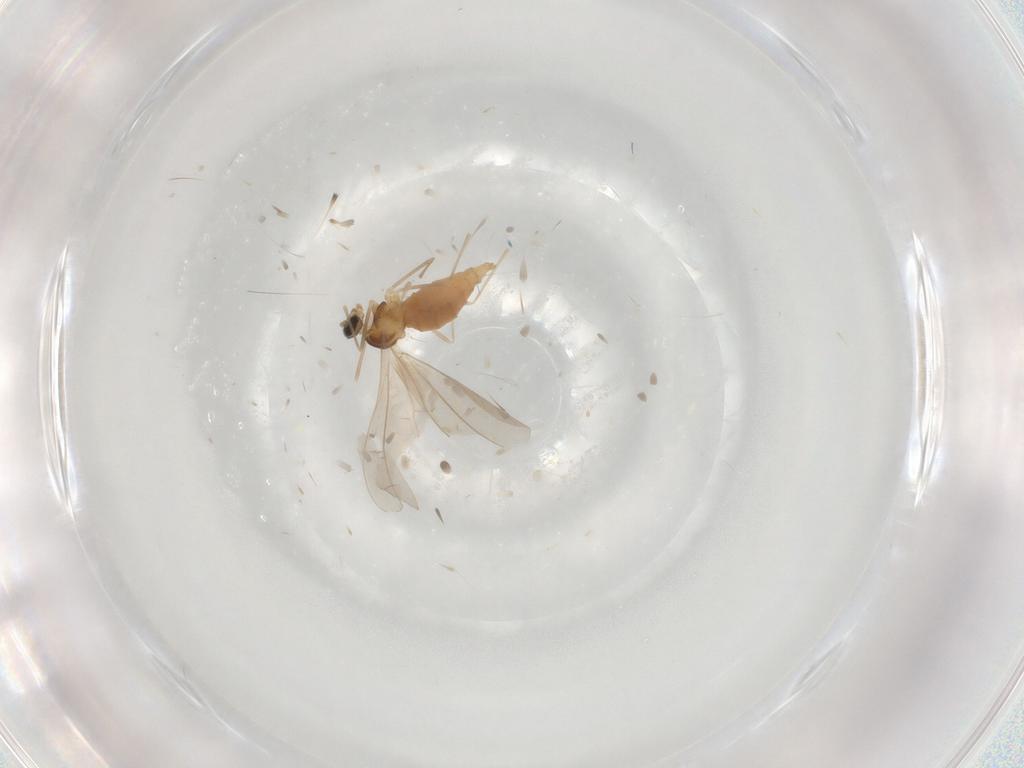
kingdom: Animalia
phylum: Arthropoda
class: Insecta
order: Diptera
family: Cecidomyiidae
